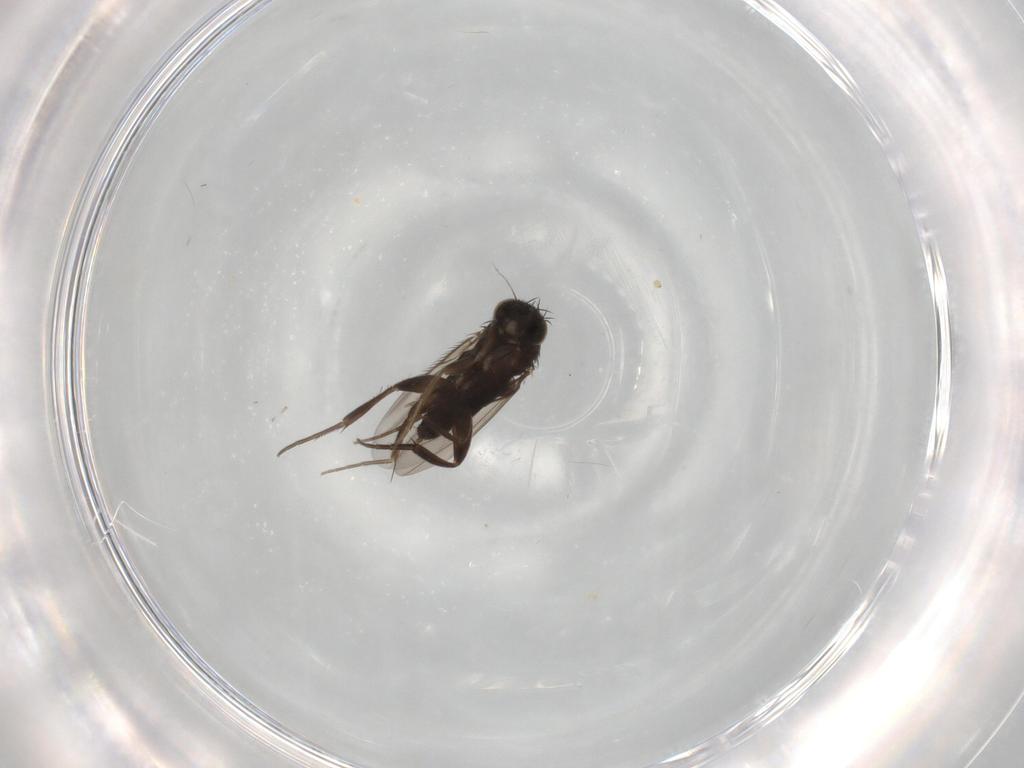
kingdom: Animalia
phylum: Arthropoda
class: Insecta
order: Diptera
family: Phoridae
